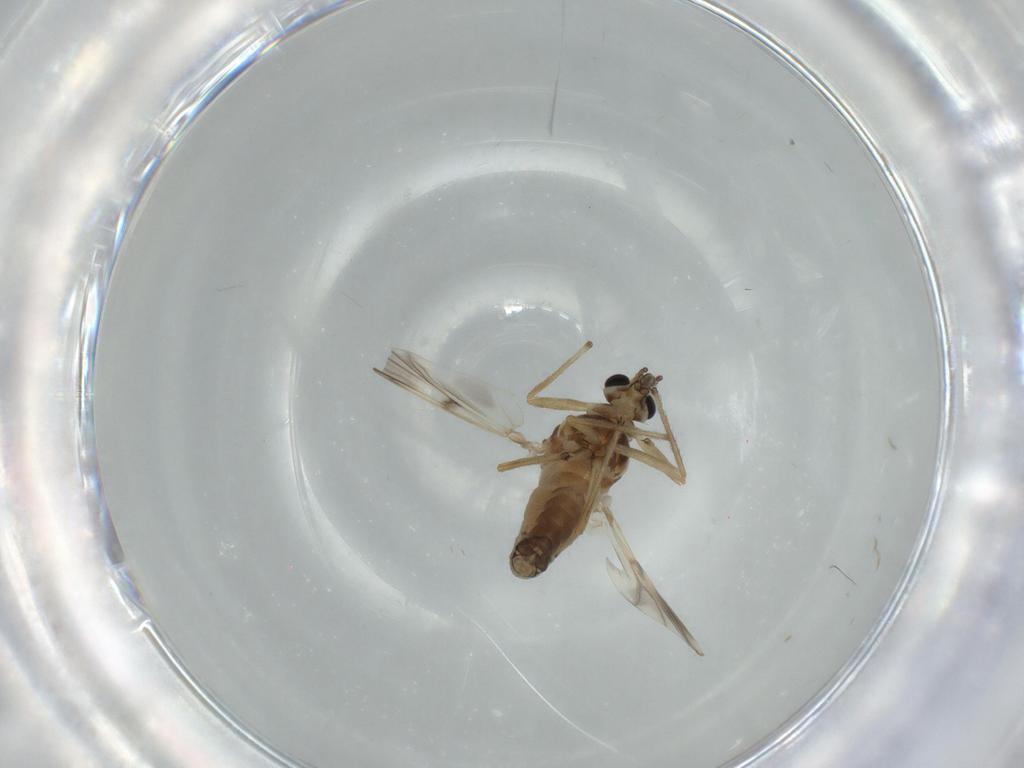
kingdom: Animalia
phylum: Arthropoda
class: Insecta
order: Diptera
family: Chironomidae
